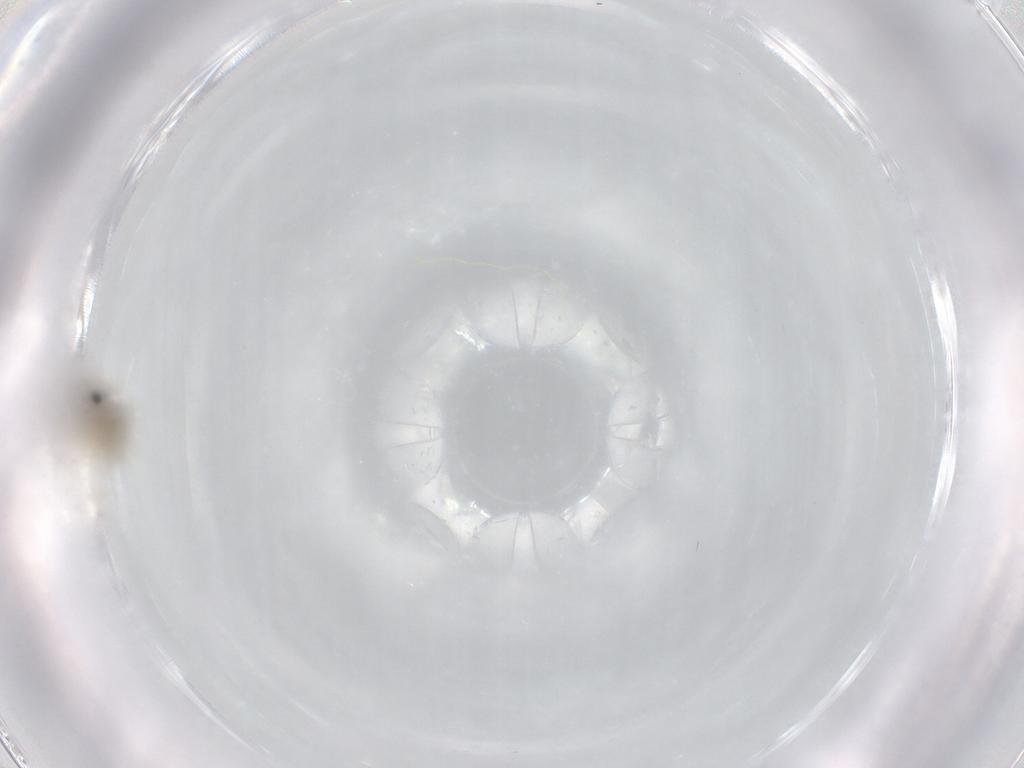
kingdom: Animalia
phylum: Arthropoda
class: Insecta
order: Diptera
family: Cecidomyiidae
